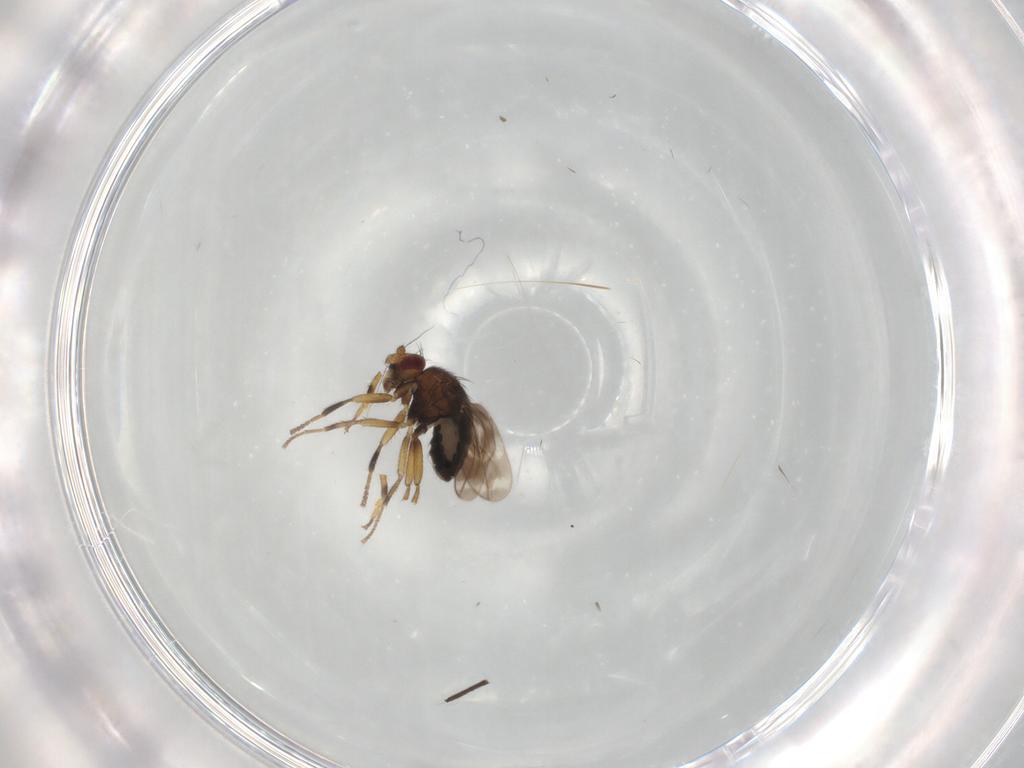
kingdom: Animalia
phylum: Arthropoda
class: Insecta
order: Diptera
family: Sphaeroceridae
